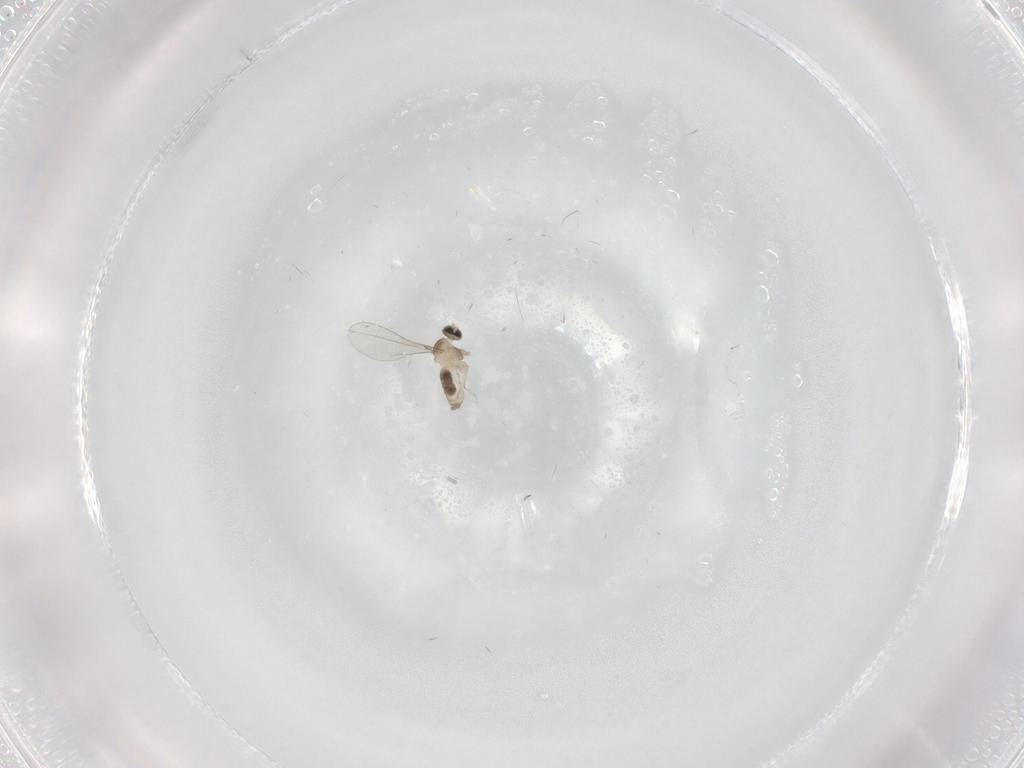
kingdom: Animalia
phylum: Arthropoda
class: Insecta
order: Diptera
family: Cecidomyiidae
